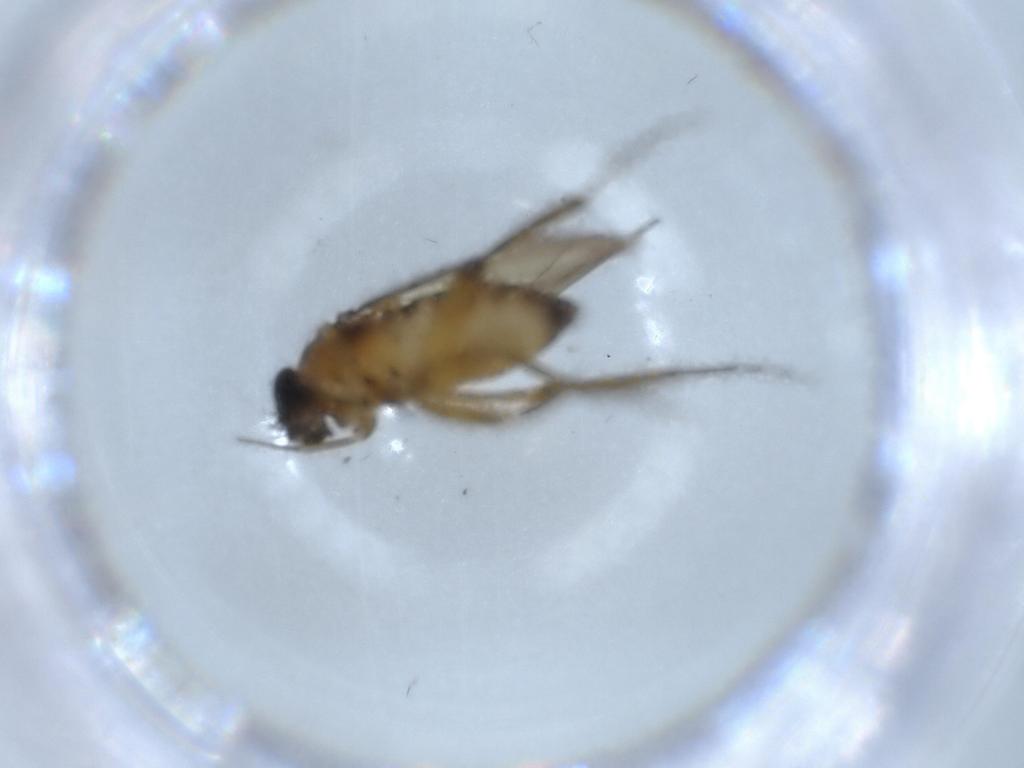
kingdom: Animalia
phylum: Arthropoda
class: Insecta
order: Diptera
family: Phoridae
